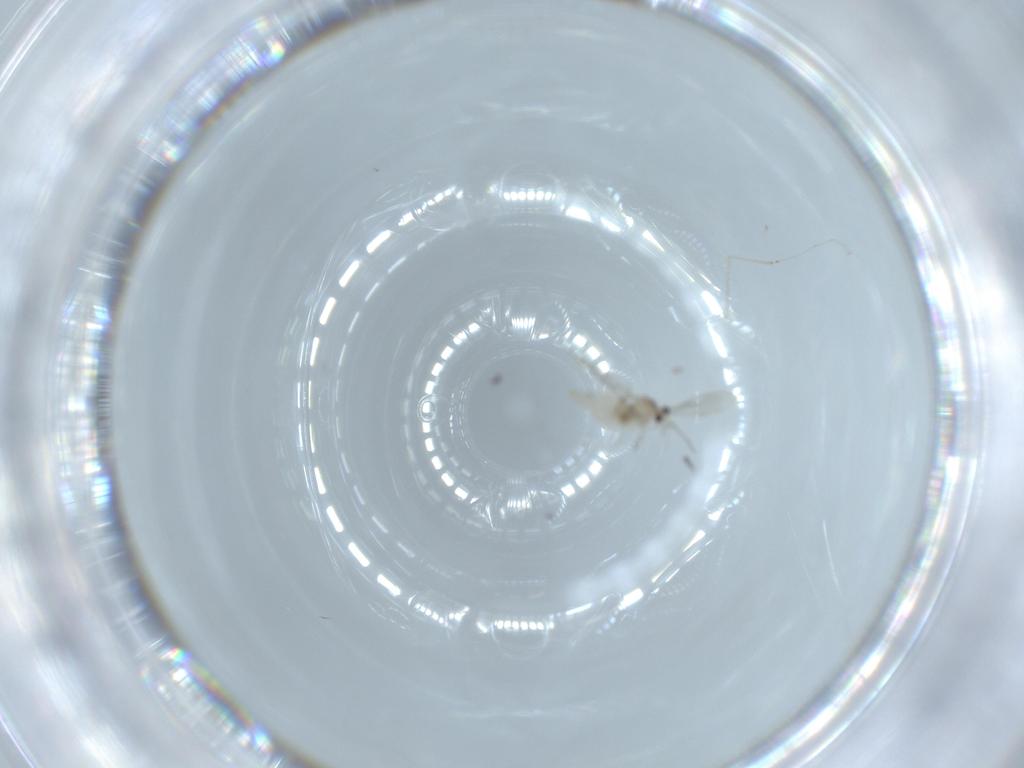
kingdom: Animalia
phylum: Arthropoda
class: Insecta
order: Diptera
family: Cecidomyiidae
